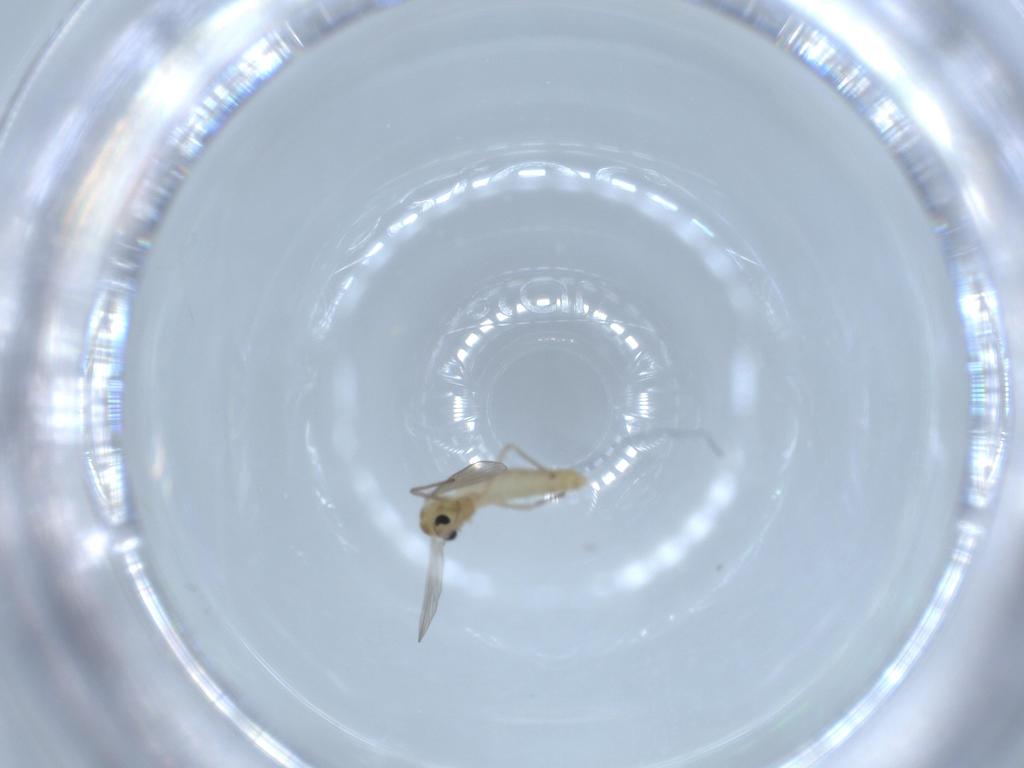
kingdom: Animalia
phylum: Arthropoda
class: Insecta
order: Diptera
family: Chironomidae
